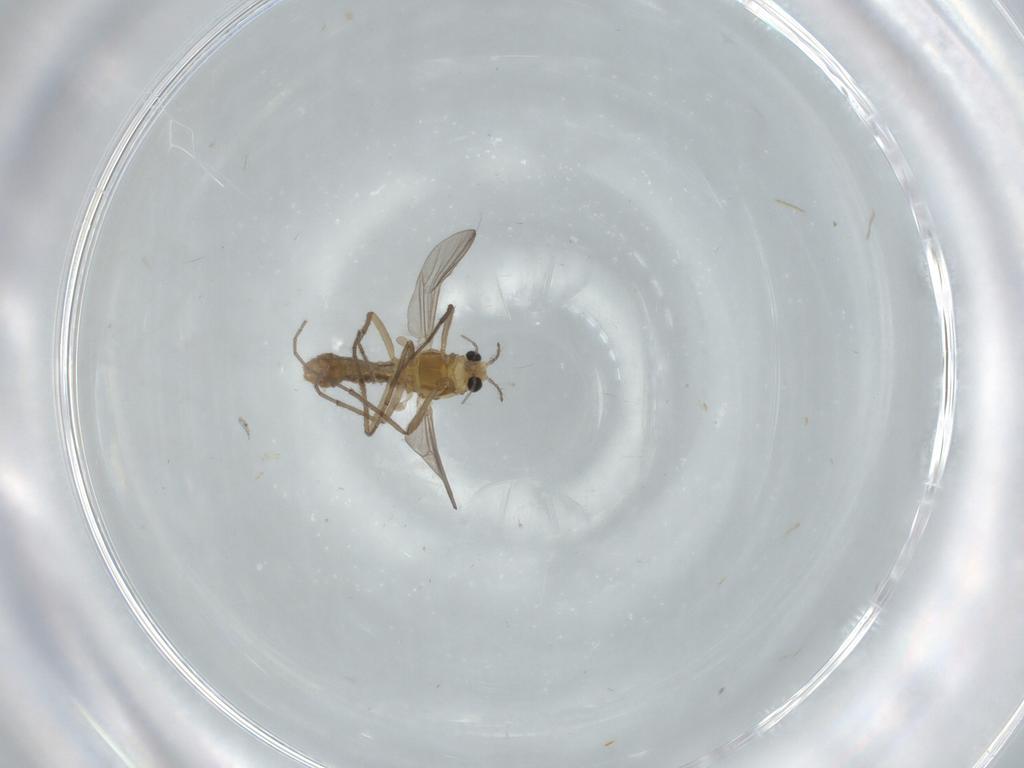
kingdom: Animalia
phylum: Arthropoda
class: Insecta
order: Diptera
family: Chironomidae
